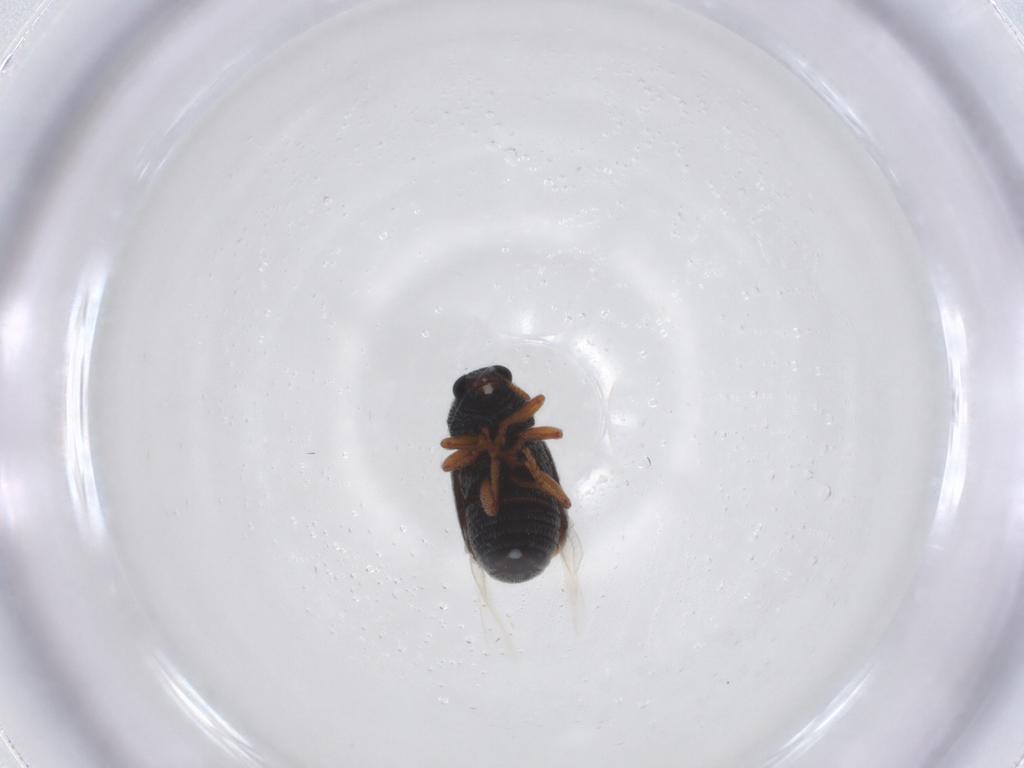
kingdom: Animalia
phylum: Arthropoda
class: Insecta
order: Coleoptera
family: Anthribidae
